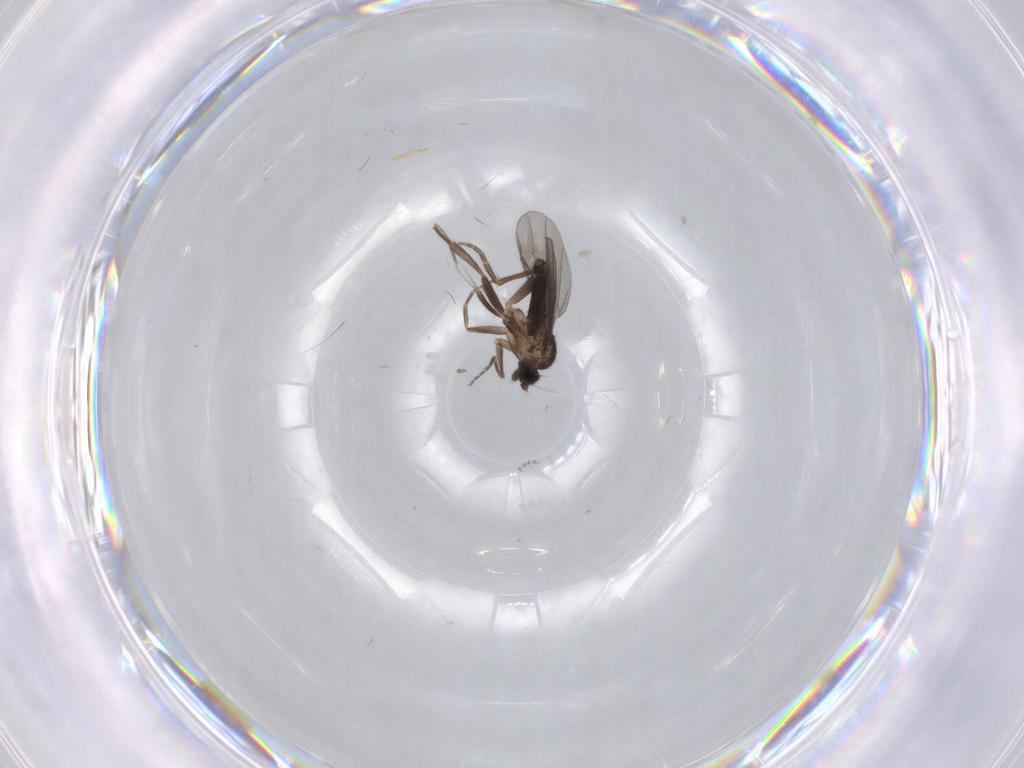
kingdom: Animalia
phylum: Arthropoda
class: Insecta
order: Diptera
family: Phoridae
